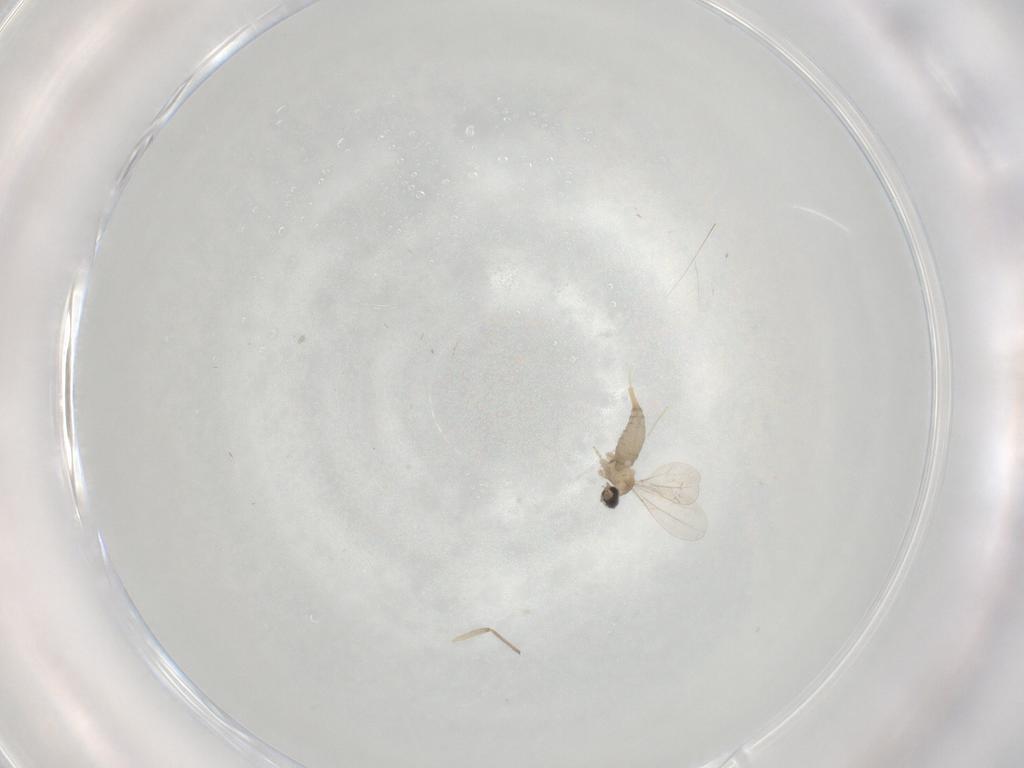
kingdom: Animalia
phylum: Arthropoda
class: Insecta
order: Diptera
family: Cecidomyiidae
